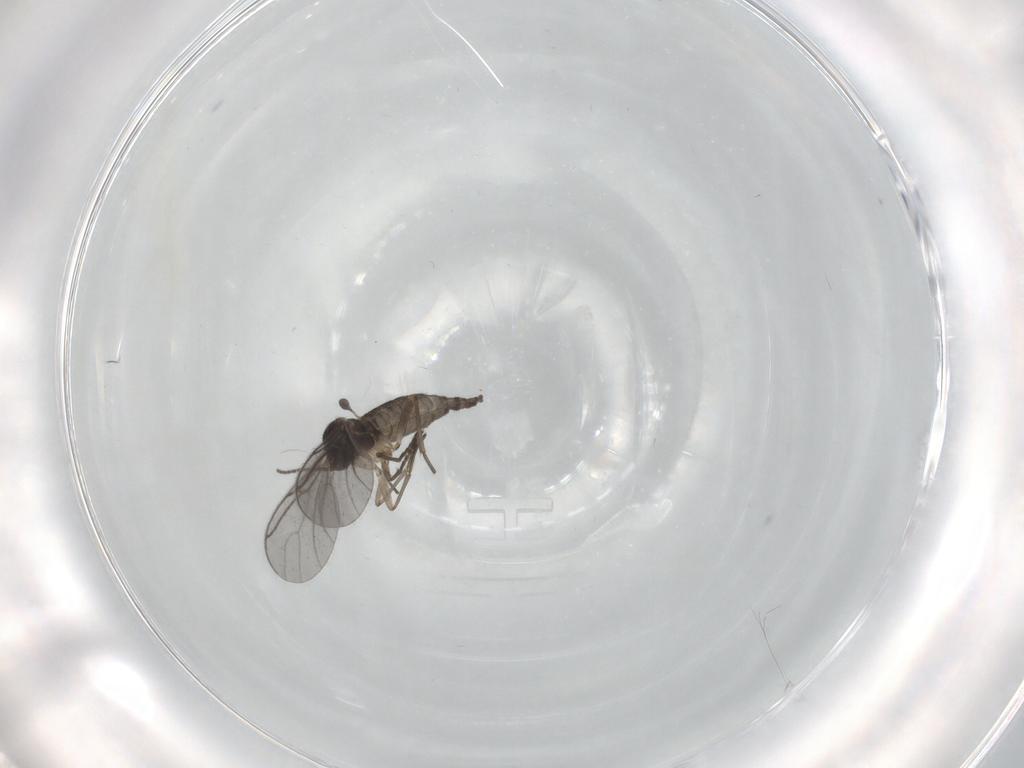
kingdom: Animalia
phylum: Arthropoda
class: Insecta
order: Diptera
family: Sciaridae
